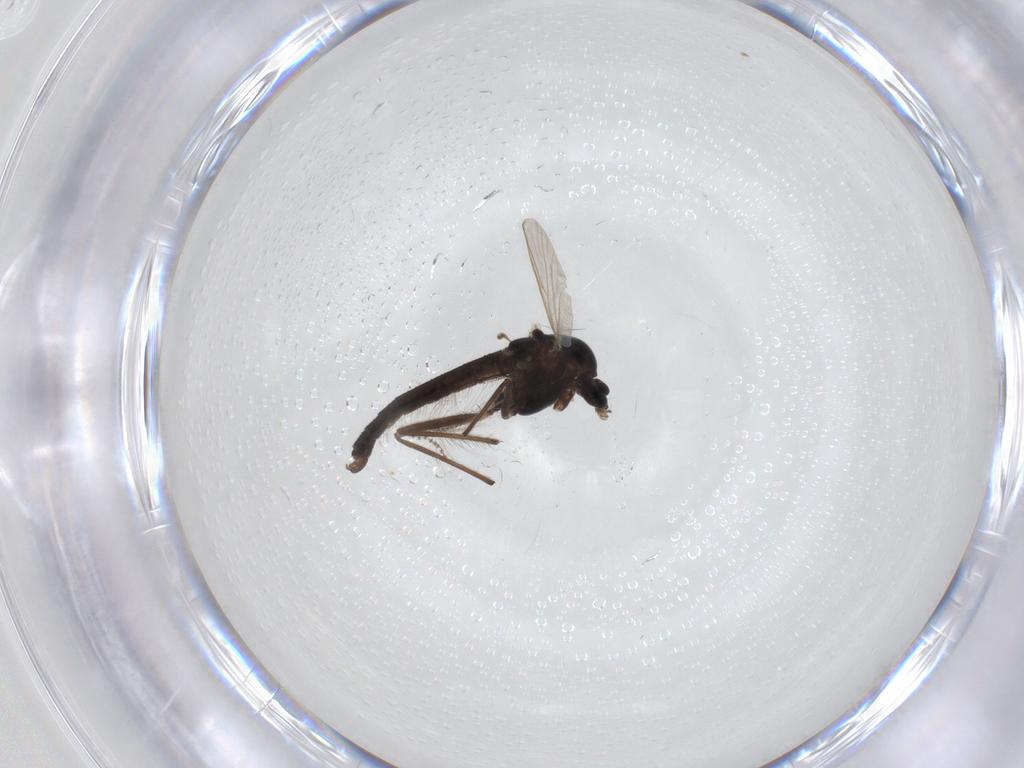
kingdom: Animalia
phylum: Arthropoda
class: Insecta
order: Diptera
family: Chironomidae
